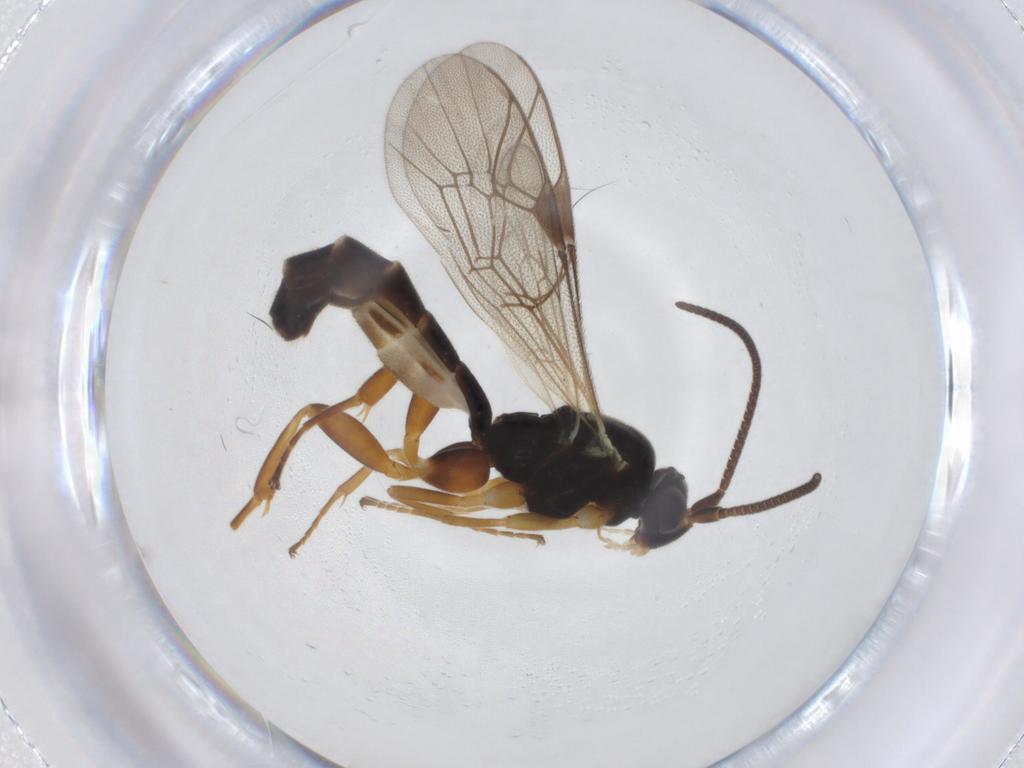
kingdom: Animalia
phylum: Arthropoda
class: Insecta
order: Hymenoptera
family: Ichneumonidae
